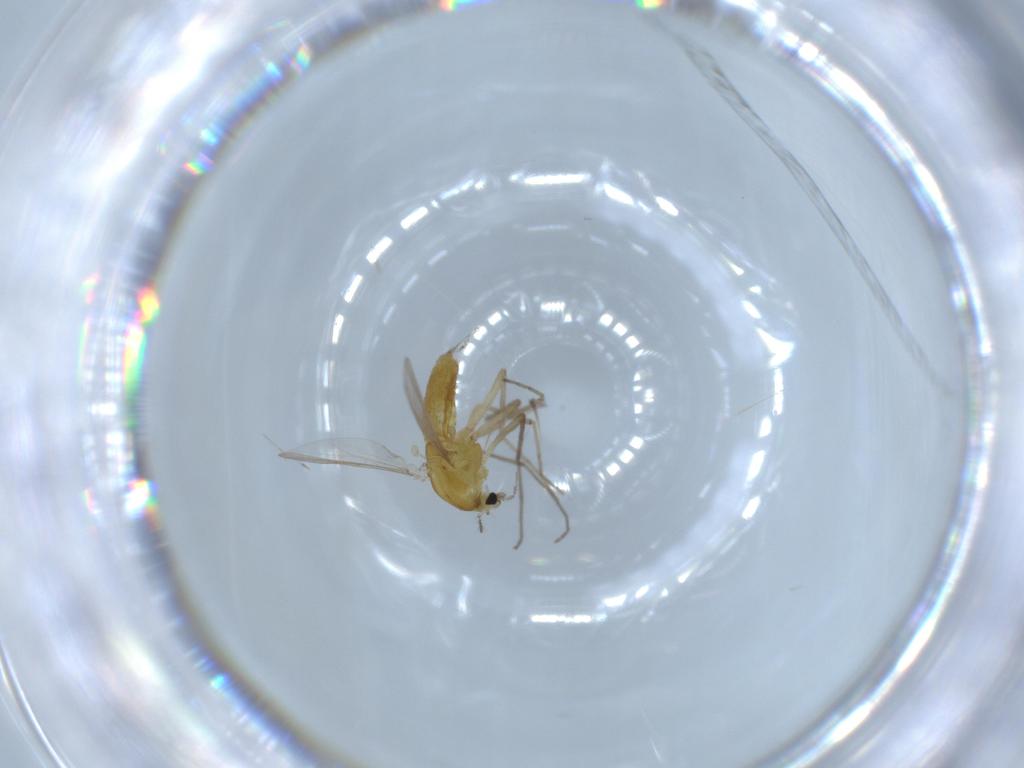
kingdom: Animalia
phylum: Arthropoda
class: Insecta
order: Diptera
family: Chironomidae
